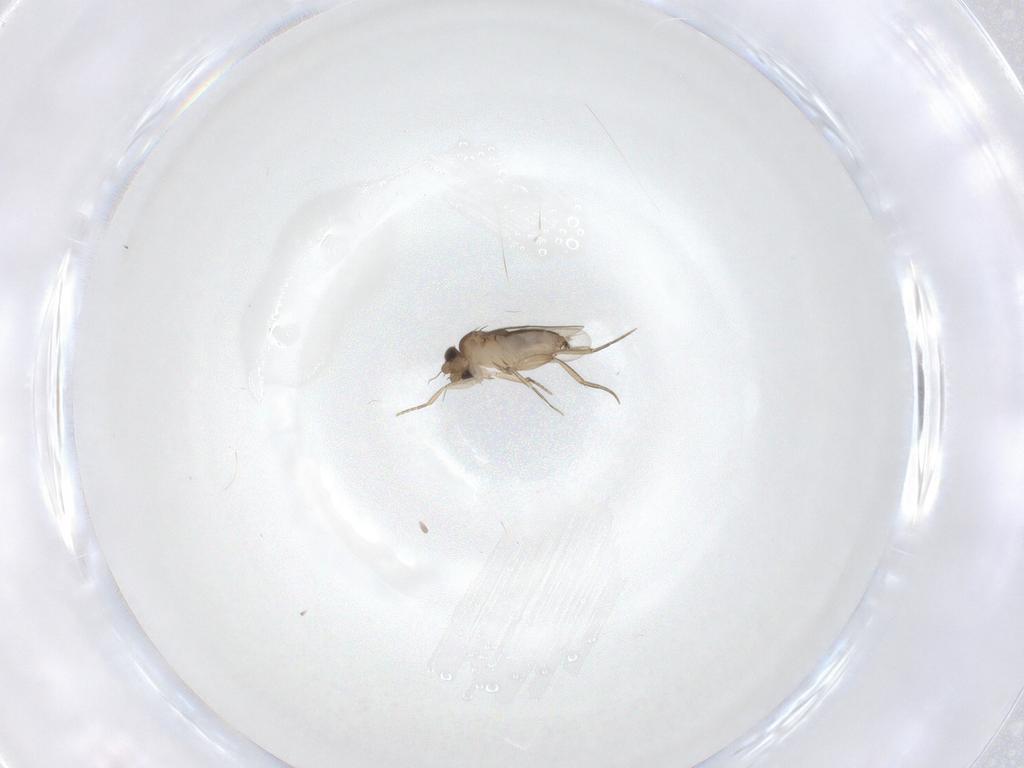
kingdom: Animalia
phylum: Arthropoda
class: Insecta
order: Diptera
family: Phoridae
